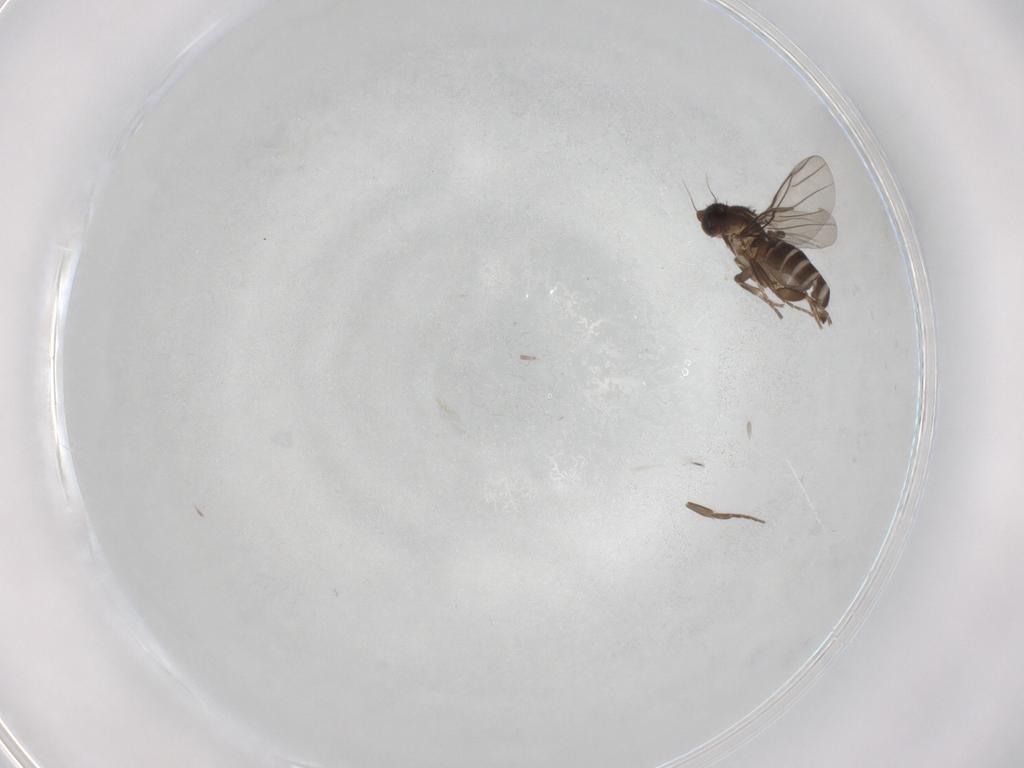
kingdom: Animalia
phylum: Arthropoda
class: Insecta
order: Diptera
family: Phoridae
